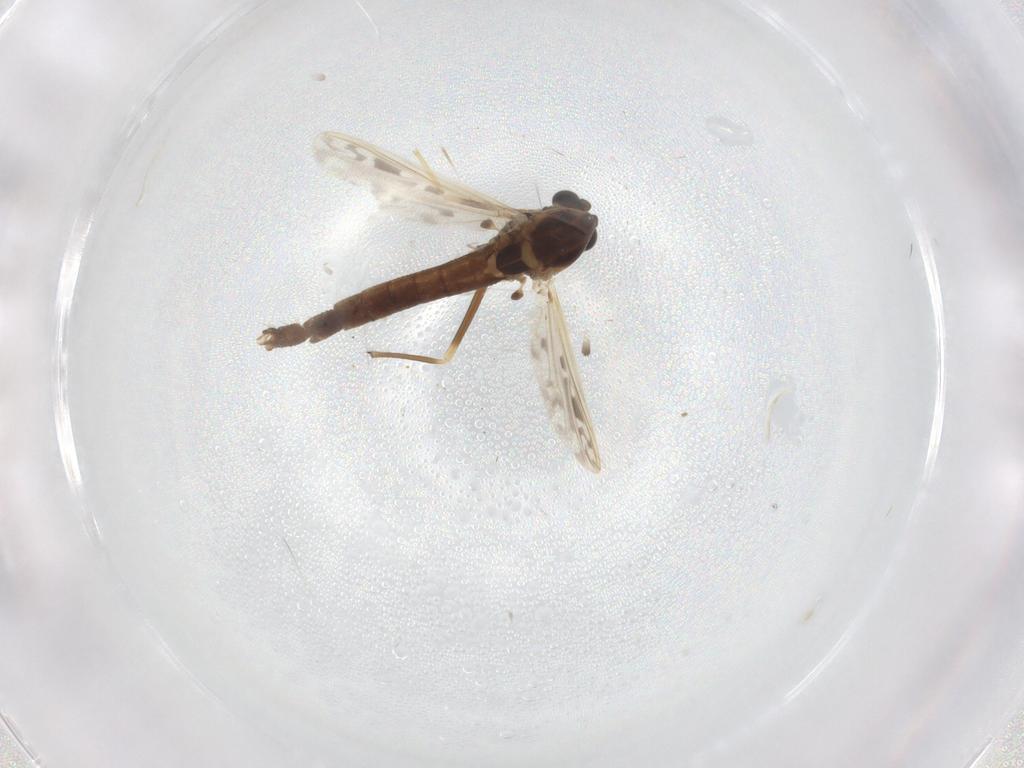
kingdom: Animalia
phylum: Arthropoda
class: Insecta
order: Diptera
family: Chironomidae
